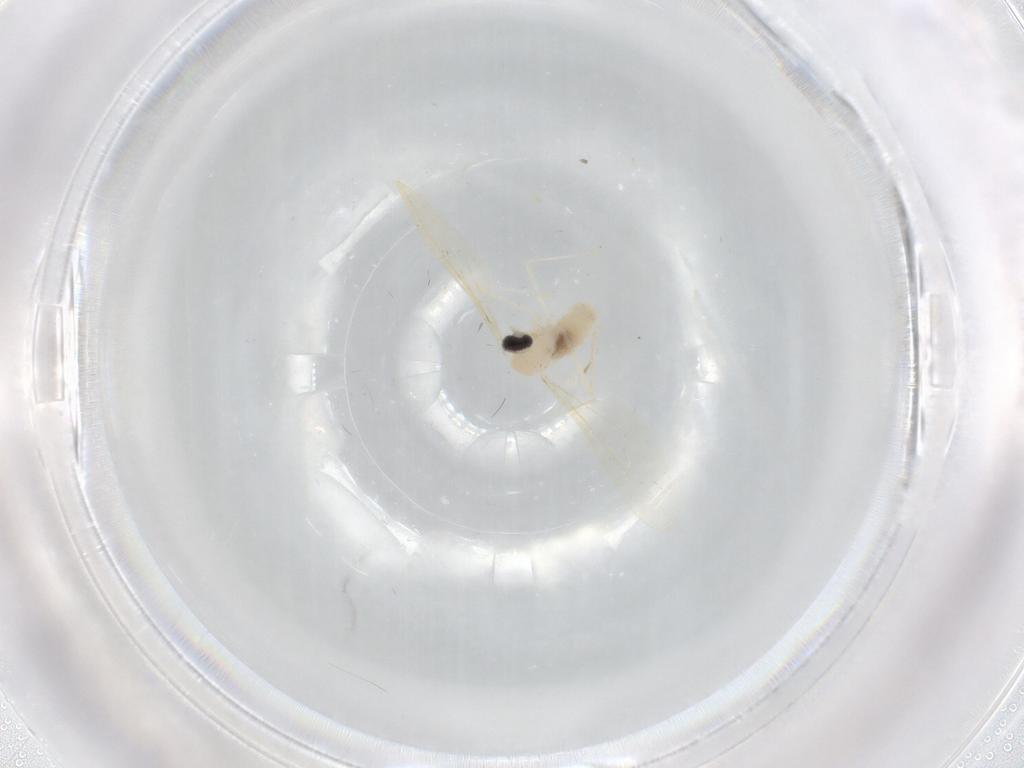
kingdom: Animalia
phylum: Arthropoda
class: Insecta
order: Diptera
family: Cecidomyiidae
